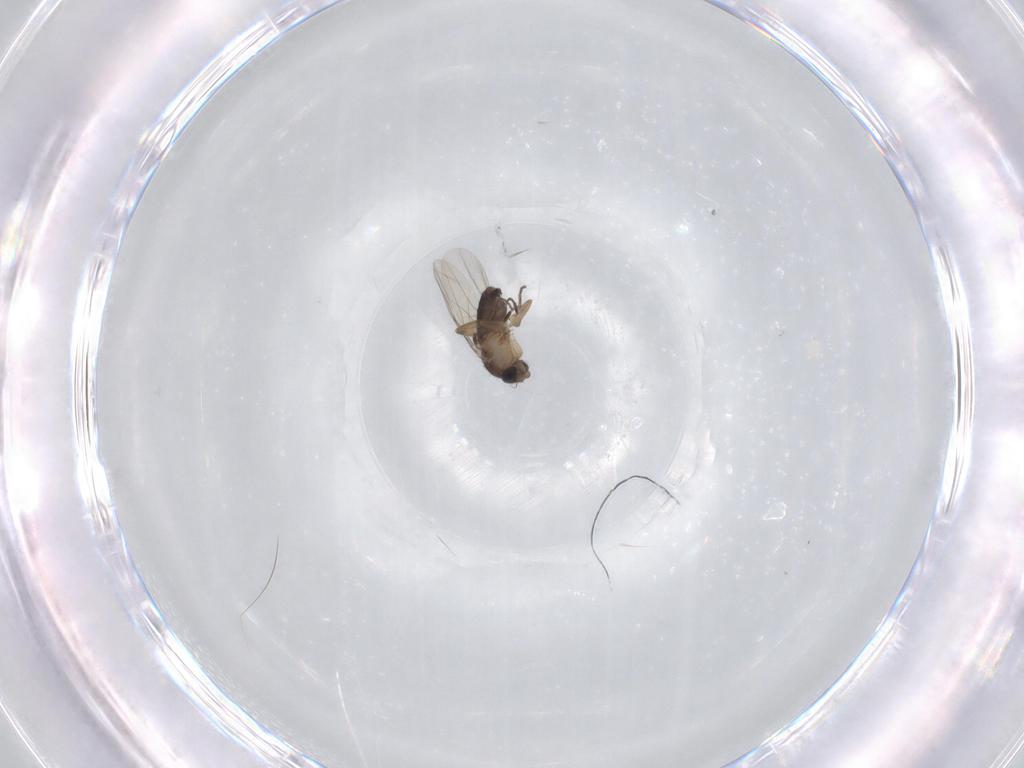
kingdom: Animalia
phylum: Arthropoda
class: Insecta
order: Diptera
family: Phoridae
